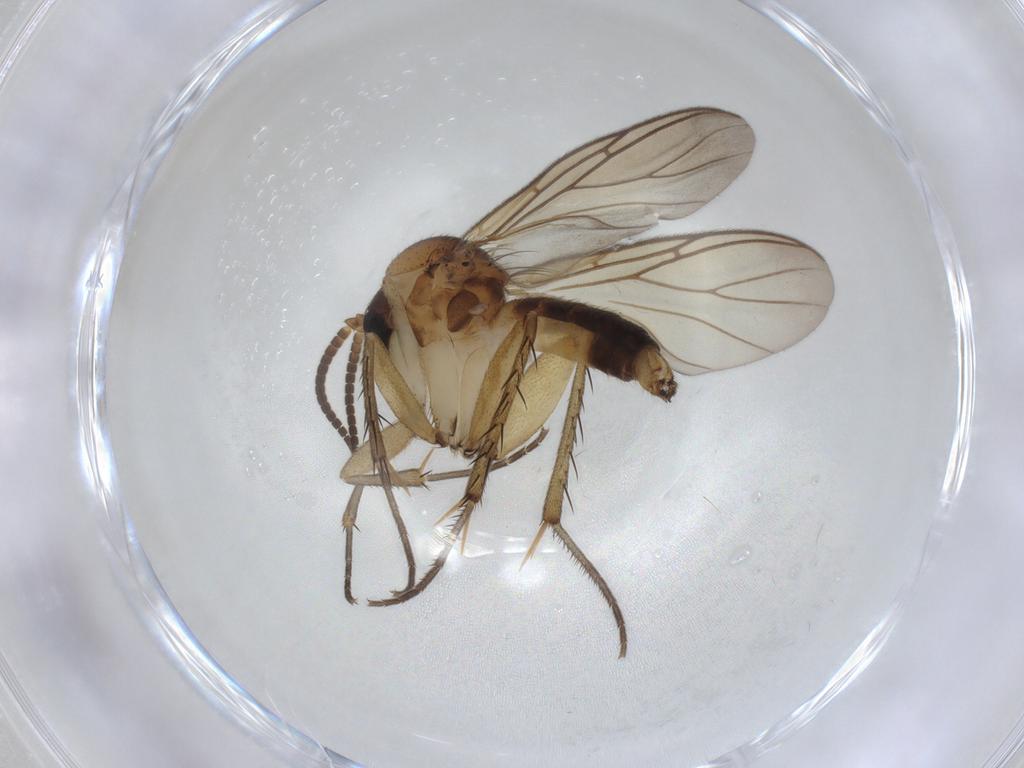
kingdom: Animalia
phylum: Arthropoda
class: Insecta
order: Diptera
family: Mycetophilidae
